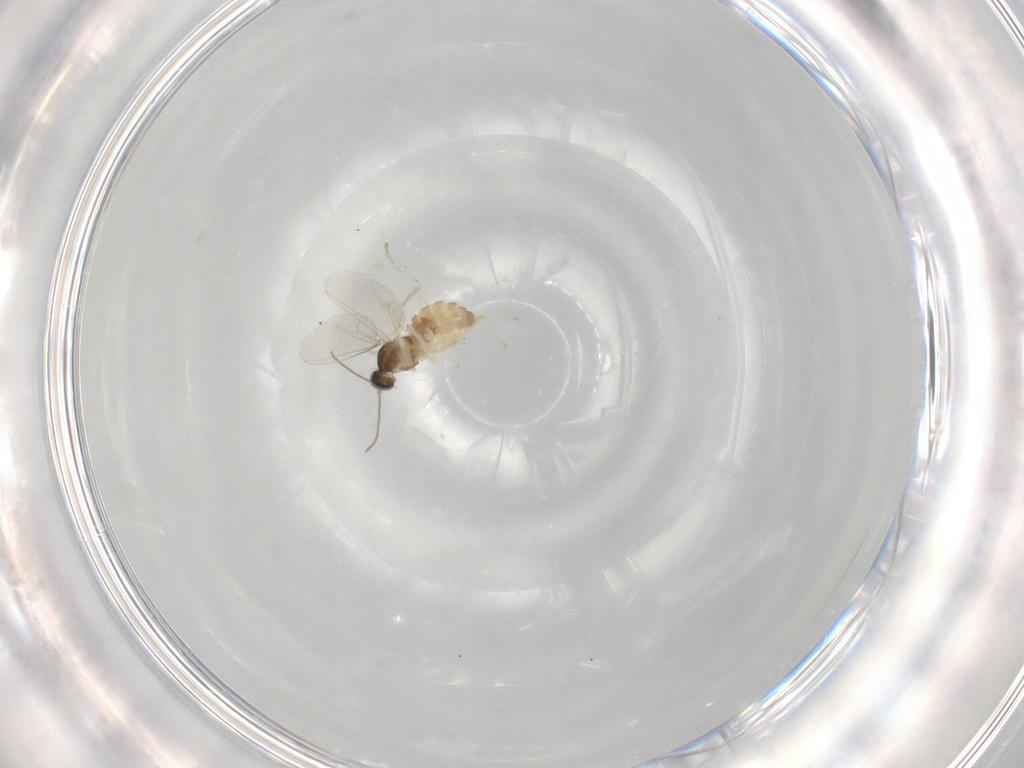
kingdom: Animalia
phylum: Arthropoda
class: Insecta
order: Diptera
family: Cecidomyiidae
